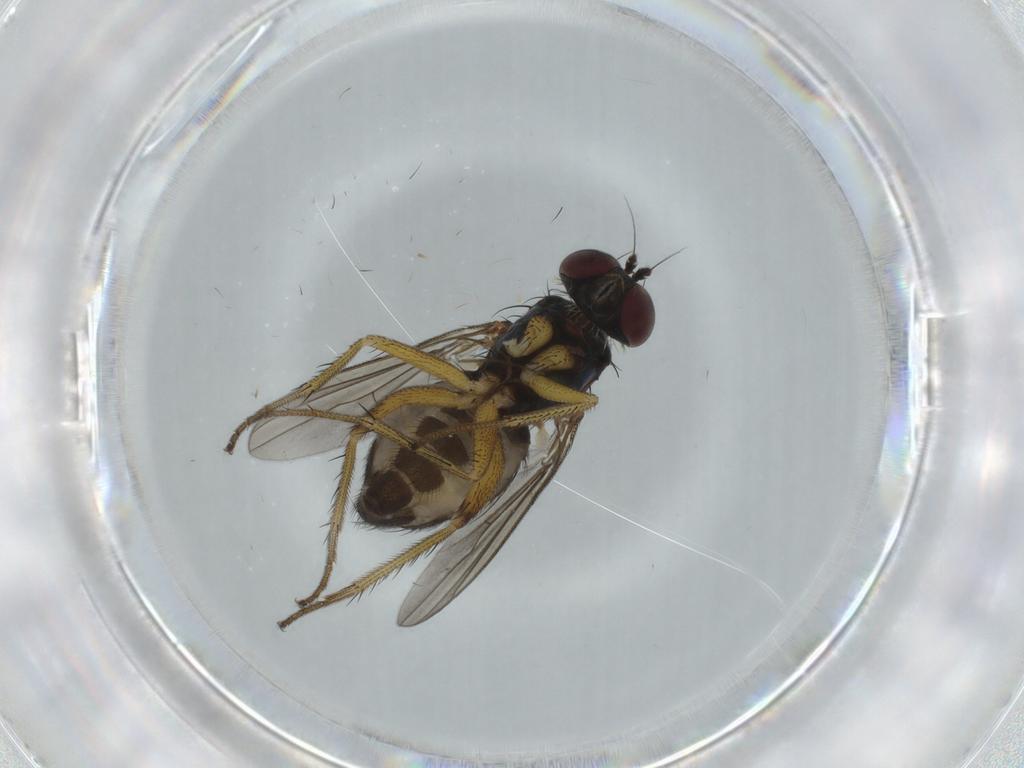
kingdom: Animalia
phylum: Arthropoda
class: Insecta
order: Diptera
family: Dolichopodidae
